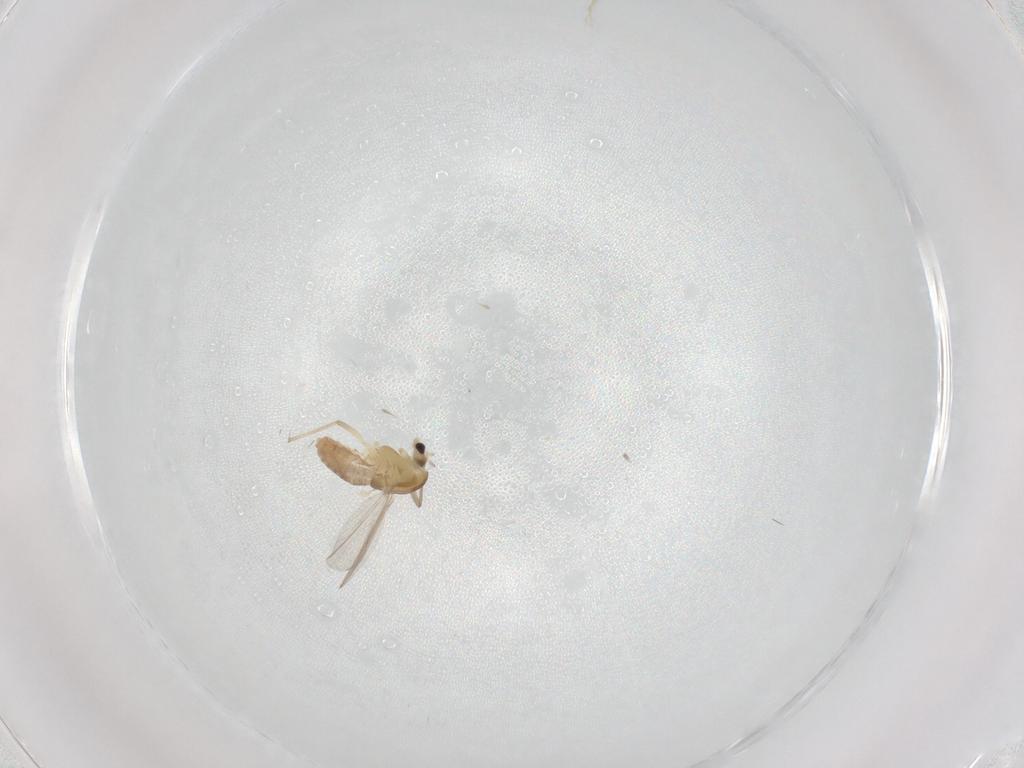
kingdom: Animalia
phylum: Arthropoda
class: Insecta
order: Diptera
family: Chironomidae
